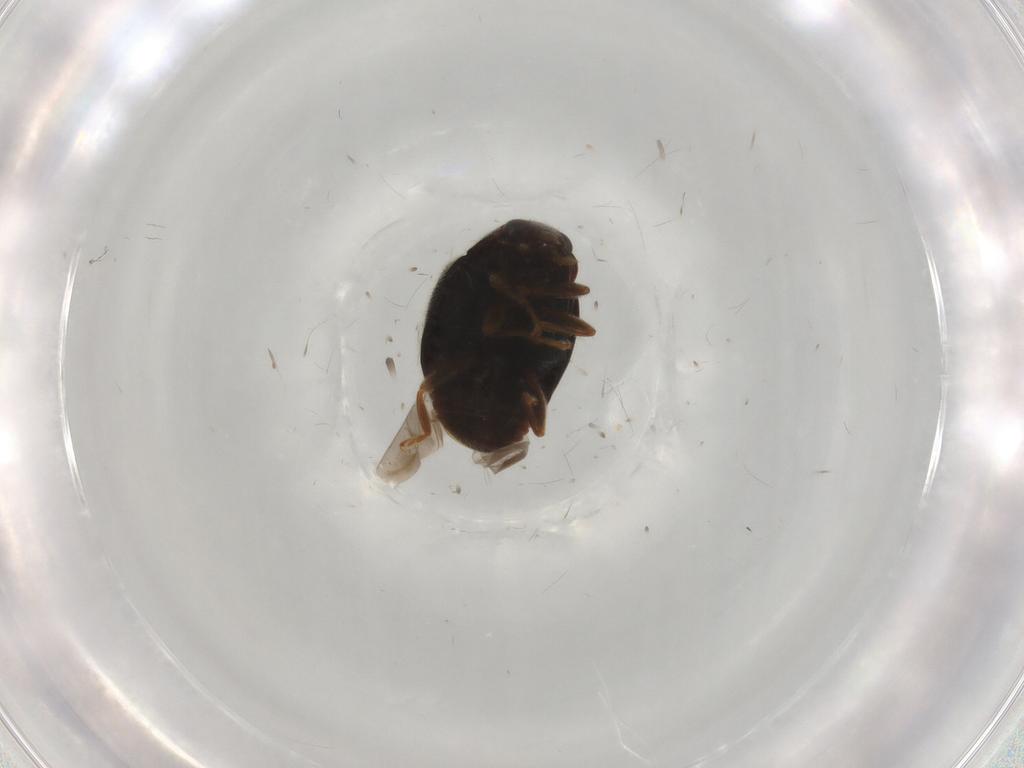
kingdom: Animalia
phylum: Arthropoda
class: Insecta
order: Coleoptera
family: Coccinellidae
